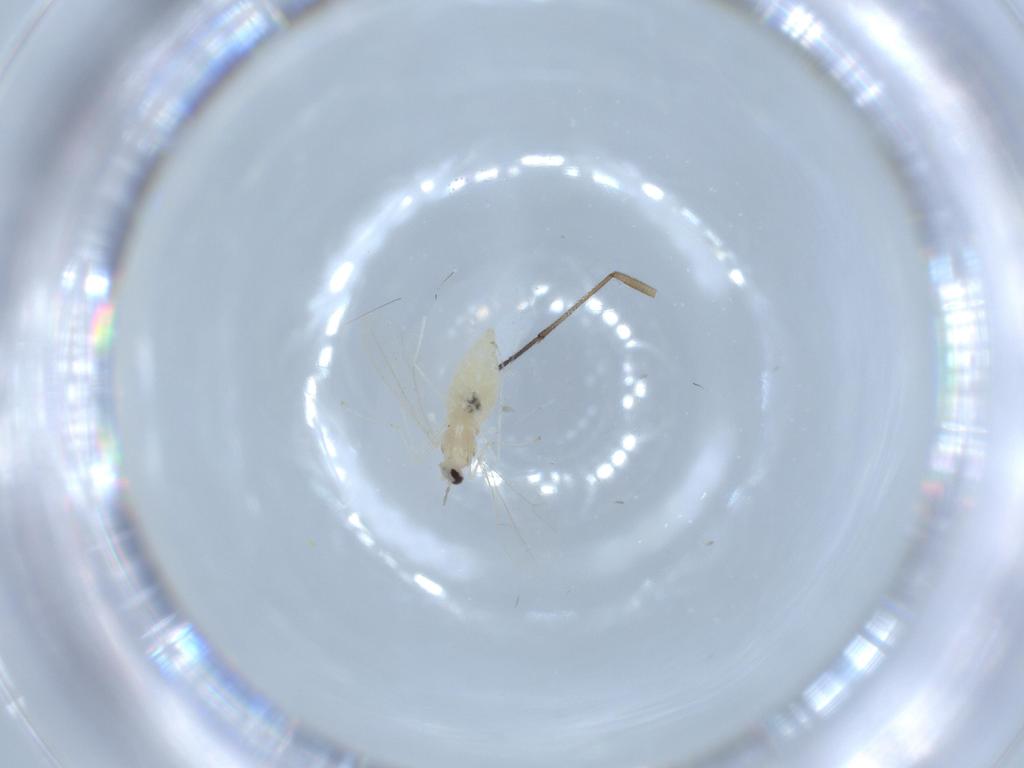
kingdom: Animalia
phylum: Arthropoda
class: Insecta
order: Diptera
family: Cecidomyiidae
